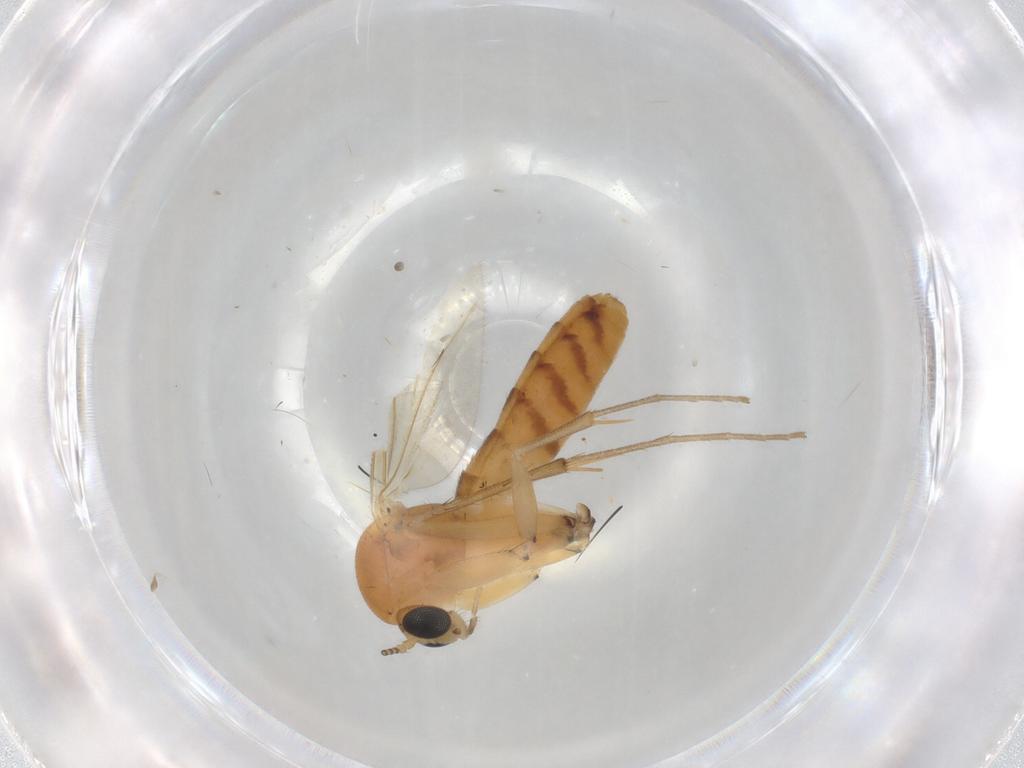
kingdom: Animalia
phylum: Arthropoda
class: Insecta
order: Diptera
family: Mycetophilidae
